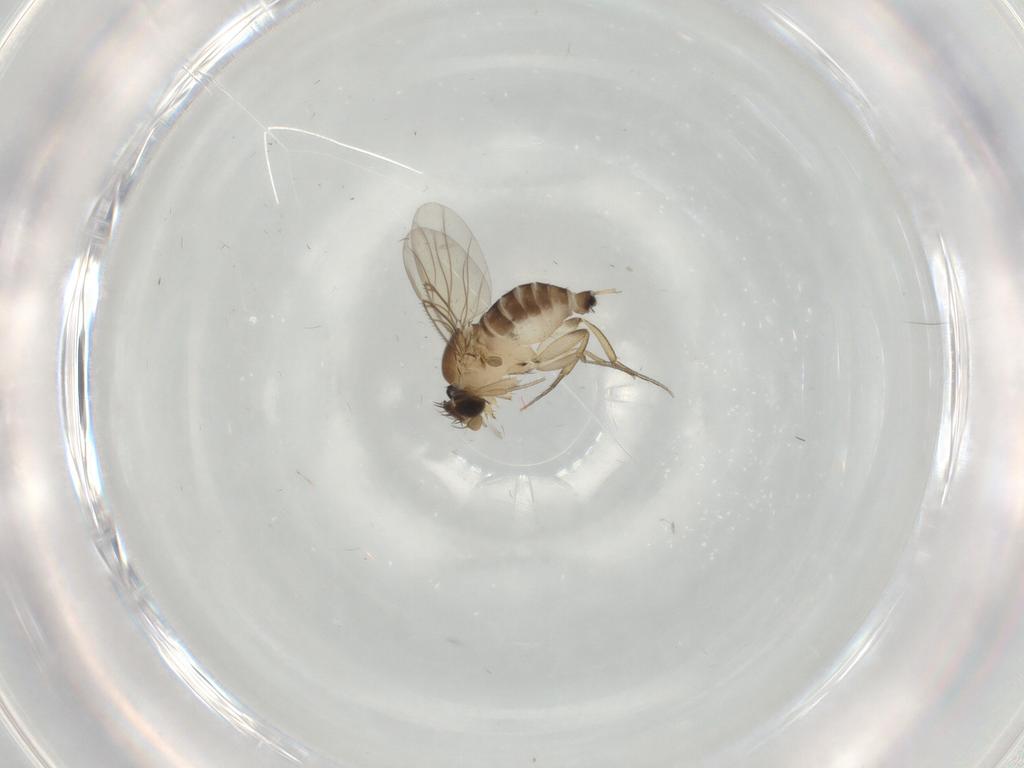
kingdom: Animalia
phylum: Arthropoda
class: Insecta
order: Diptera
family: Phoridae
